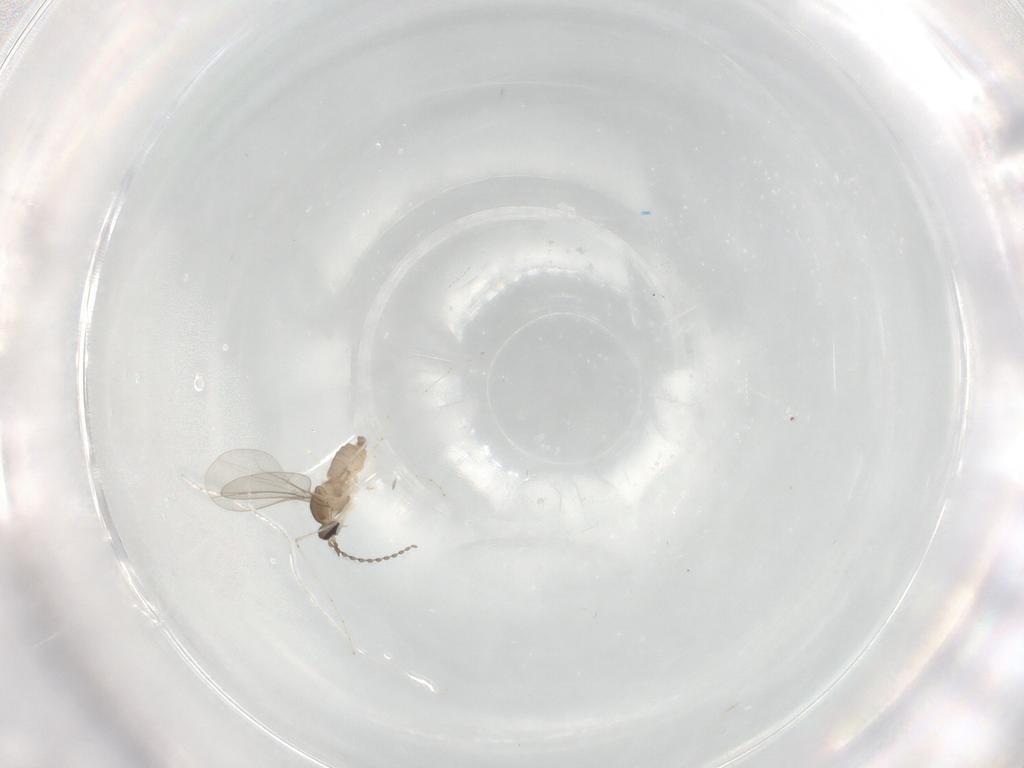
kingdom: Animalia
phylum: Arthropoda
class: Insecta
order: Diptera
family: Cecidomyiidae
